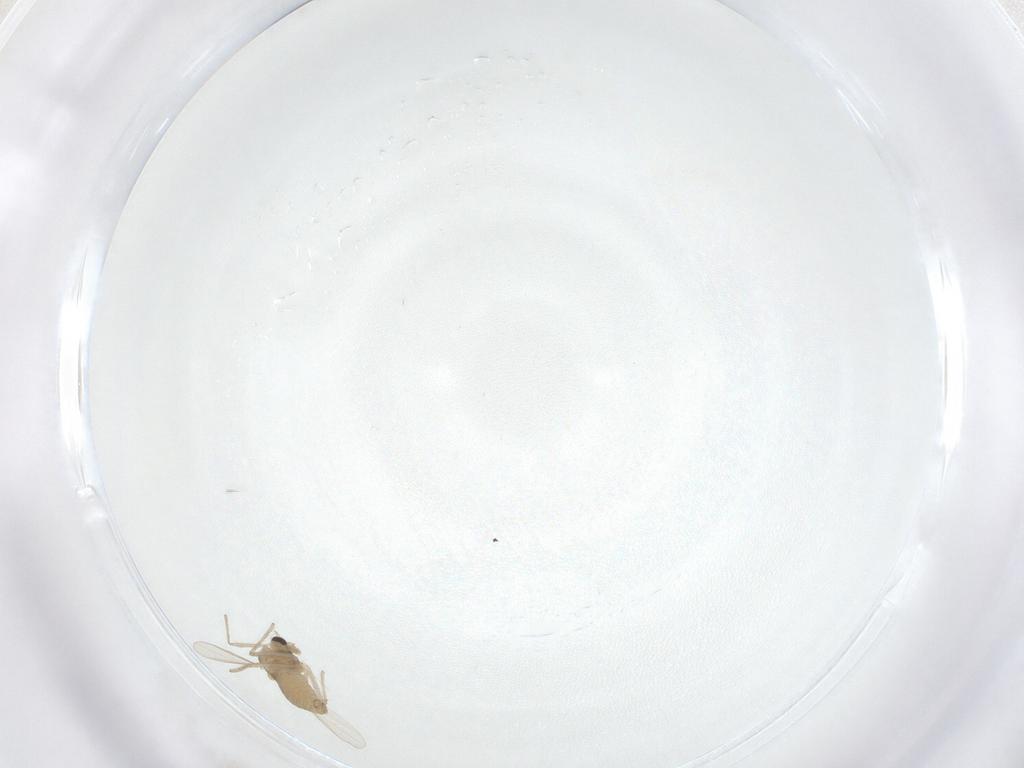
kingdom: Animalia
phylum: Arthropoda
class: Insecta
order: Diptera
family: Chironomidae
